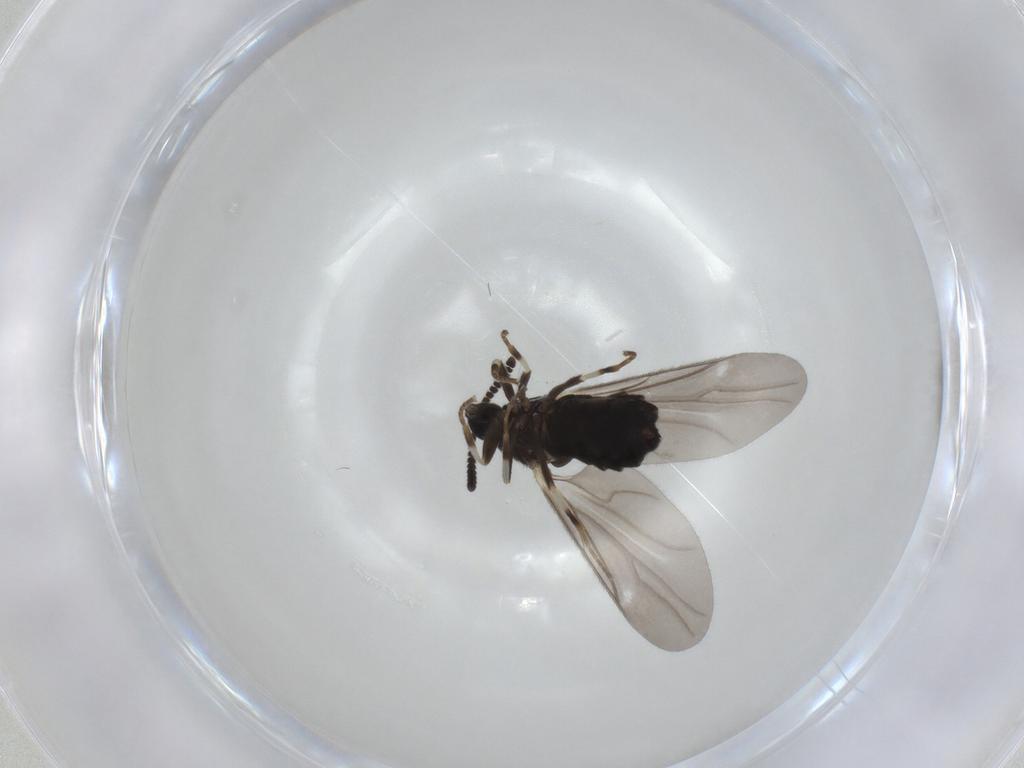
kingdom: Animalia
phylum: Arthropoda
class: Insecta
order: Diptera
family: Scatopsidae
